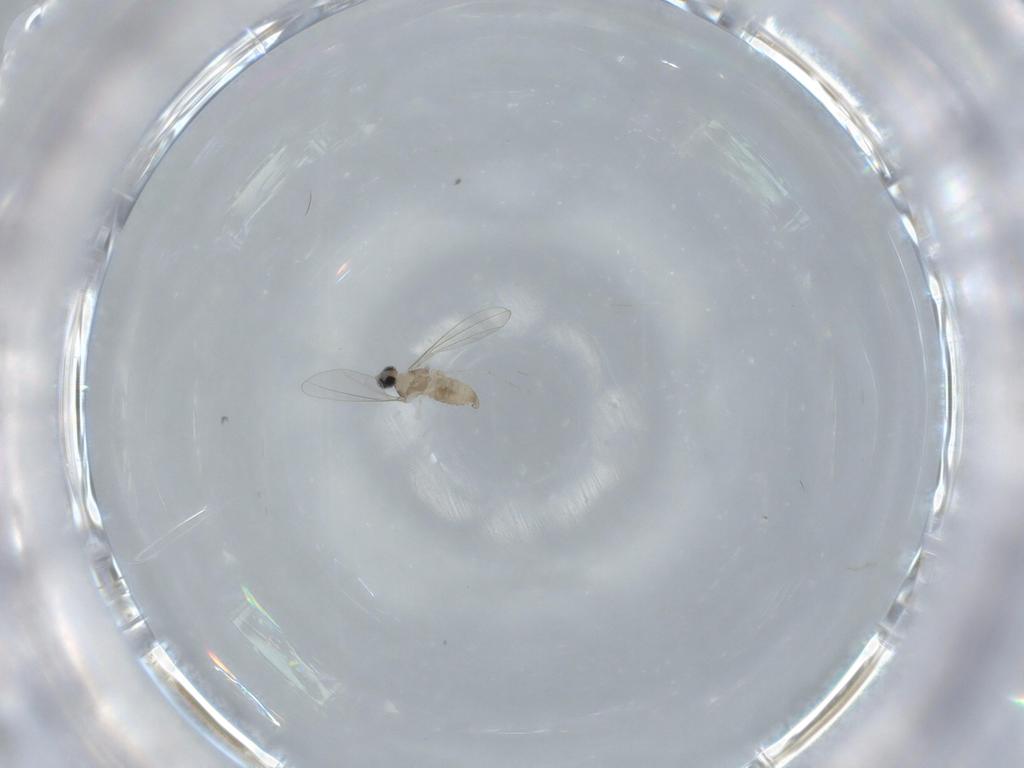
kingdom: Animalia
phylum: Arthropoda
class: Insecta
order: Diptera
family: Cecidomyiidae
